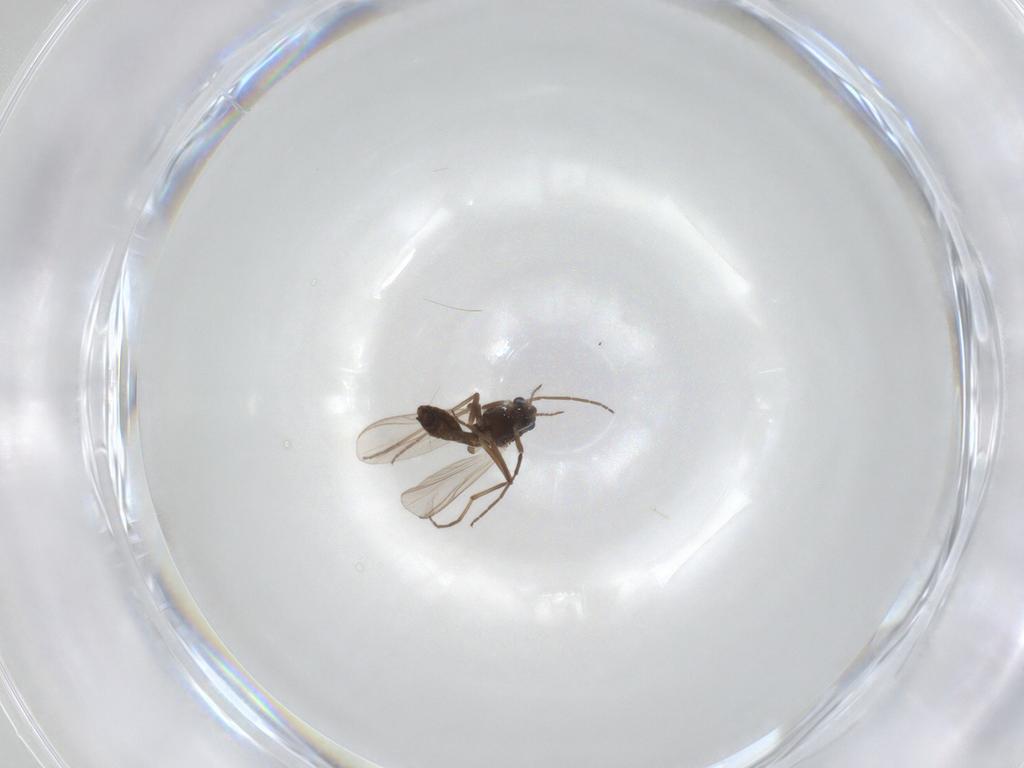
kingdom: Animalia
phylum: Arthropoda
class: Insecta
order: Diptera
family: Chironomidae
